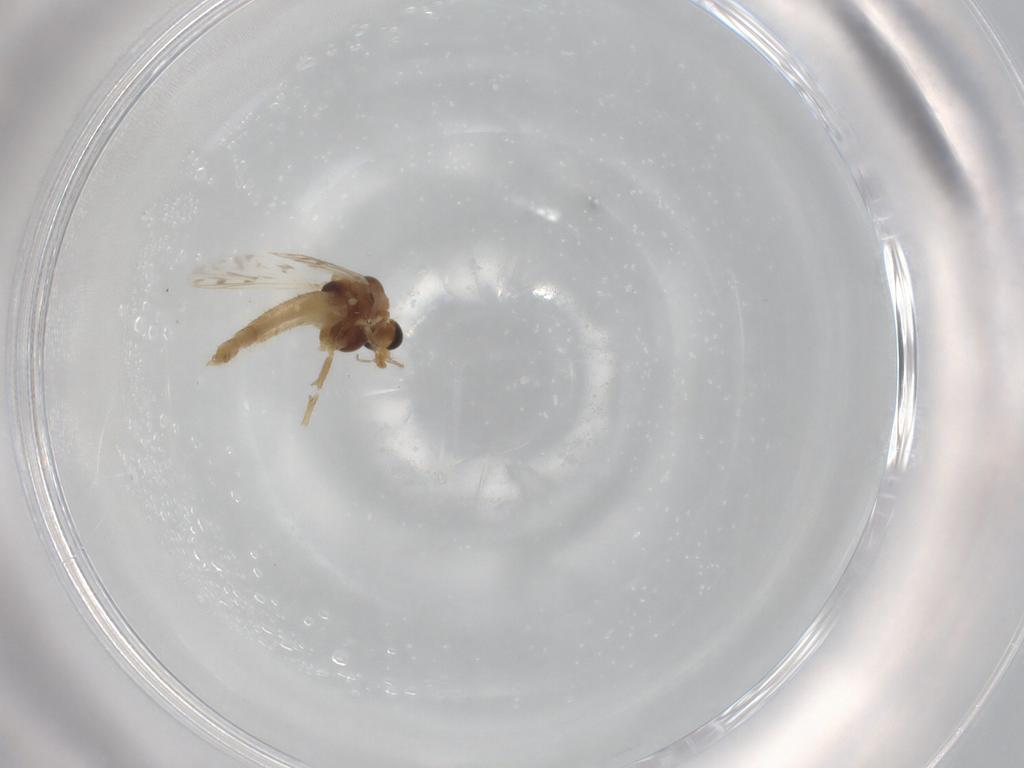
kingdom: Animalia
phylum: Arthropoda
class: Insecta
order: Diptera
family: Chironomidae
